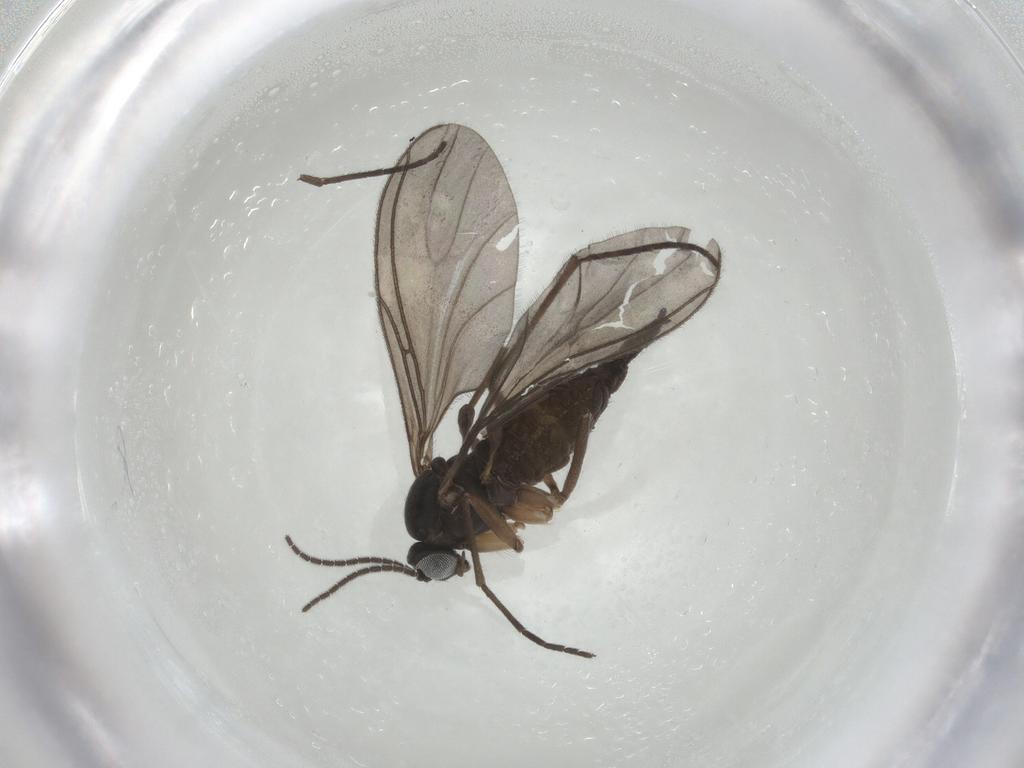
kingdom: Animalia
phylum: Arthropoda
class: Insecta
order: Diptera
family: Sciaridae
